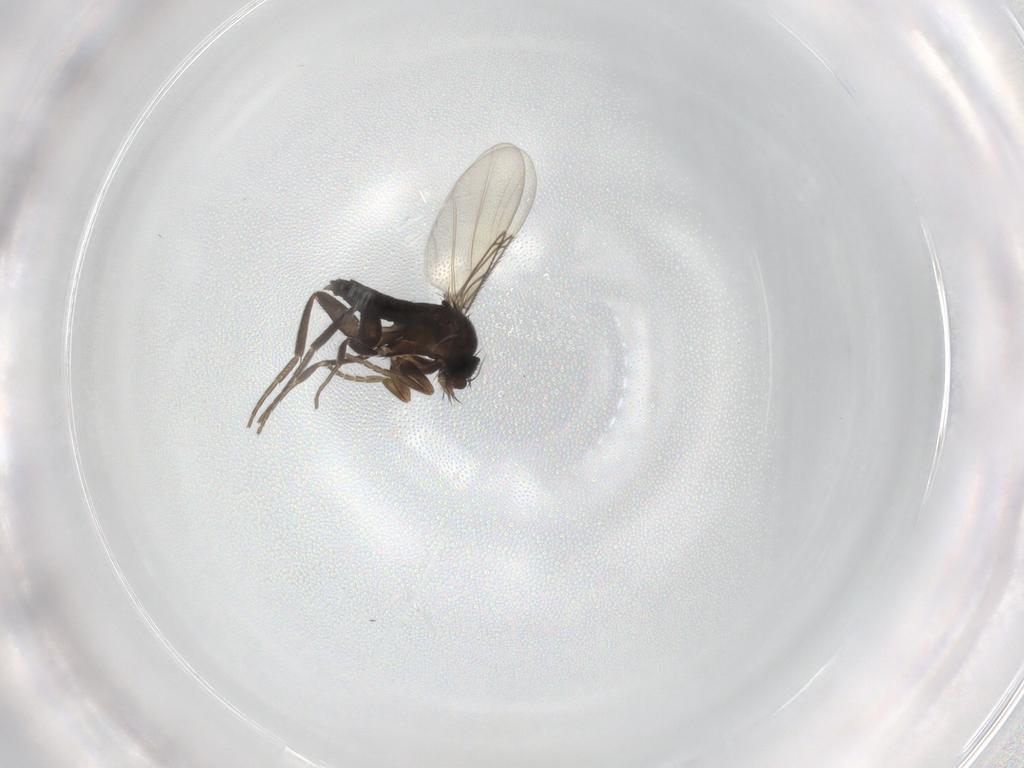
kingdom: Animalia
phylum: Arthropoda
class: Insecta
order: Diptera
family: Phoridae
